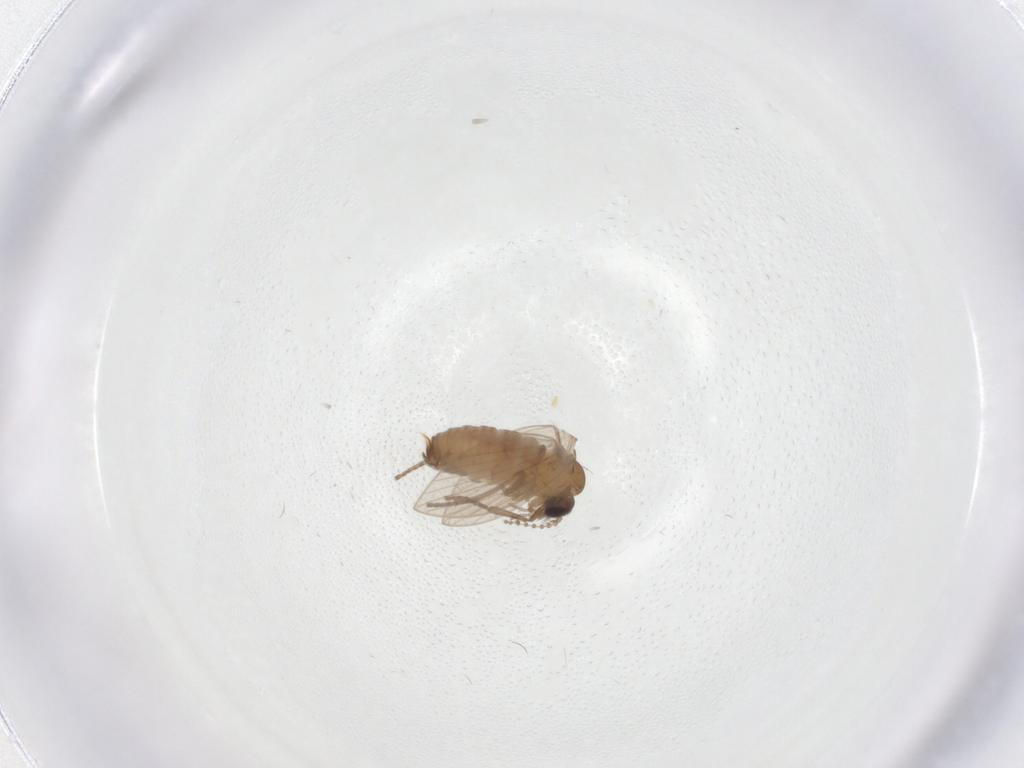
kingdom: Animalia
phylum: Arthropoda
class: Insecta
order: Diptera
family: Psychodidae
